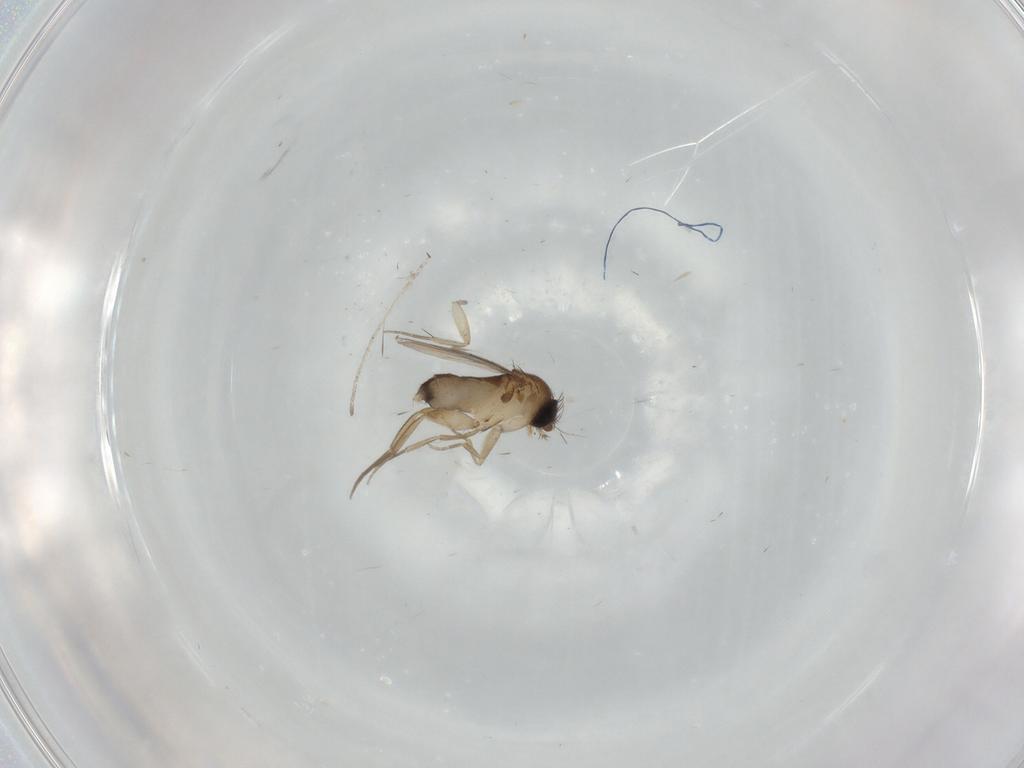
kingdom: Animalia
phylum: Arthropoda
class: Insecta
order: Diptera
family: Phoridae
